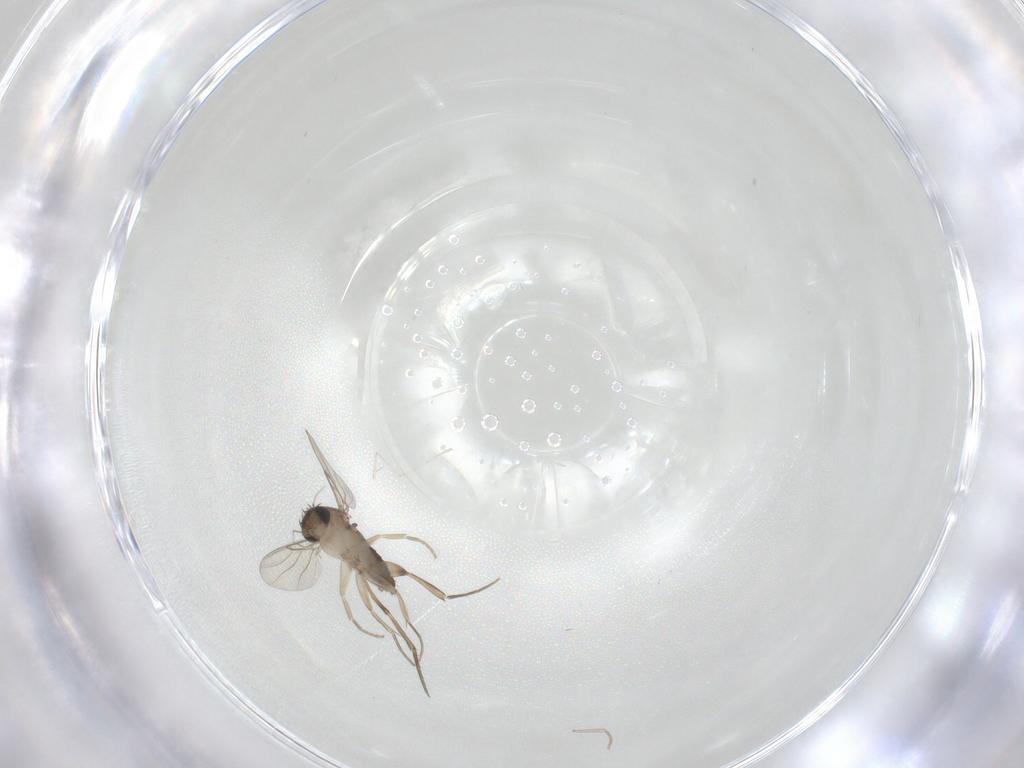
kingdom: Animalia
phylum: Arthropoda
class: Insecta
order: Diptera
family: Phoridae
